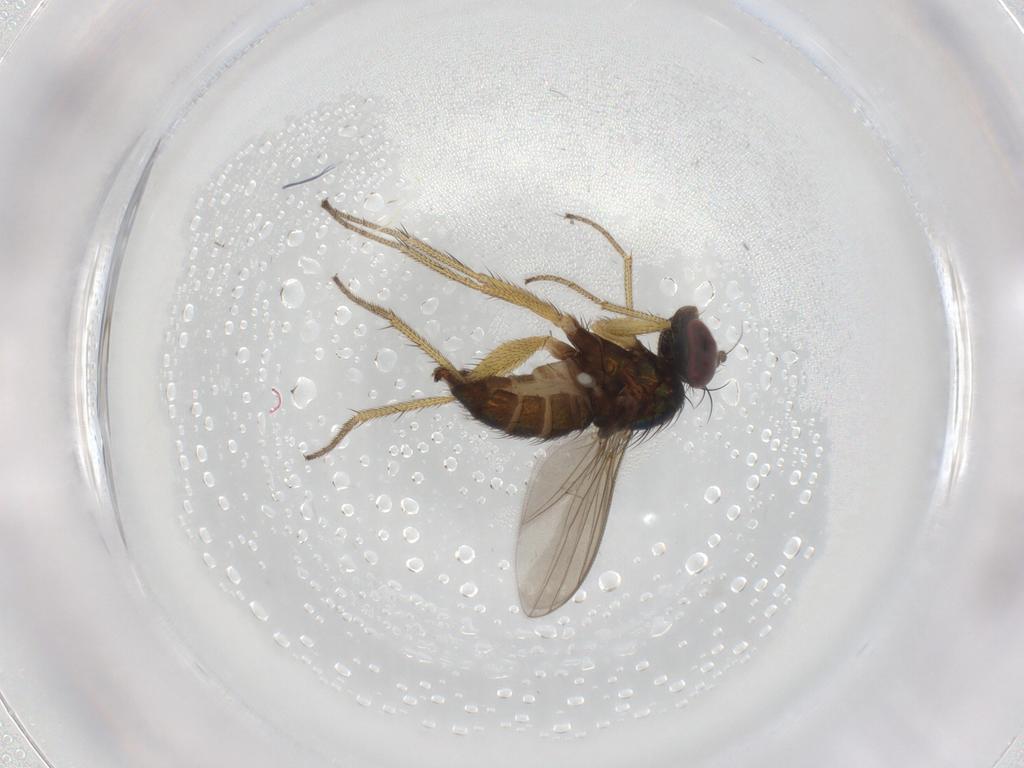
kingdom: Animalia
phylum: Arthropoda
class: Insecta
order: Diptera
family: Dolichopodidae
